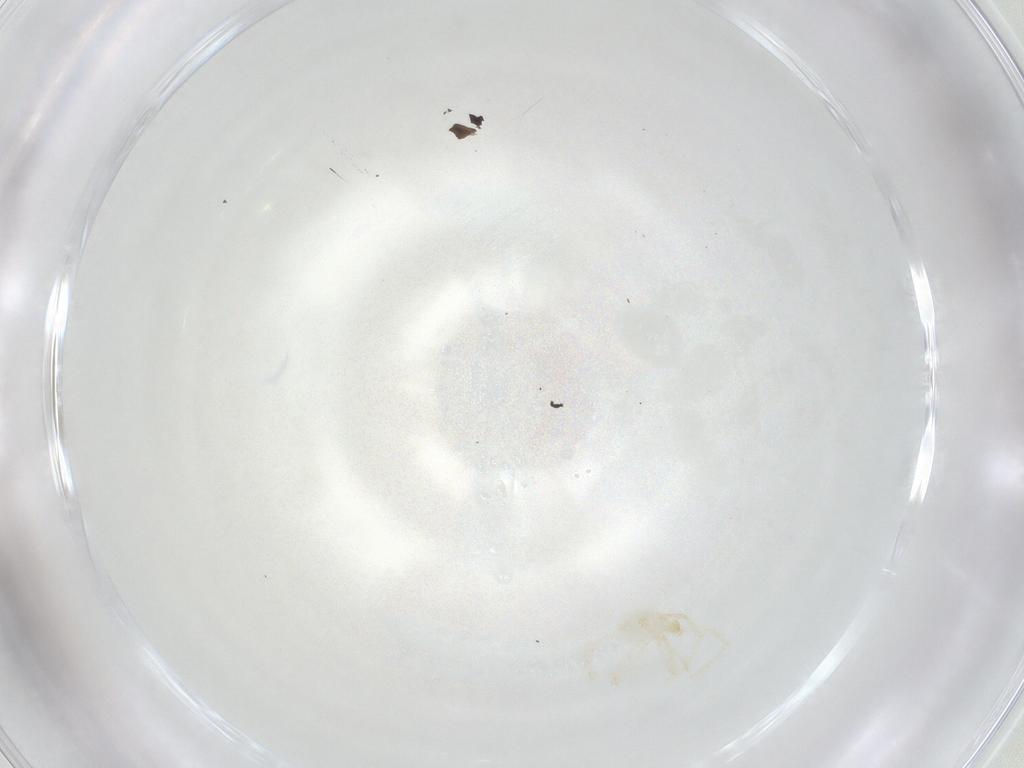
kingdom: Animalia
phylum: Arthropoda
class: Arachnida
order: Trombidiformes
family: Erythraeidae
